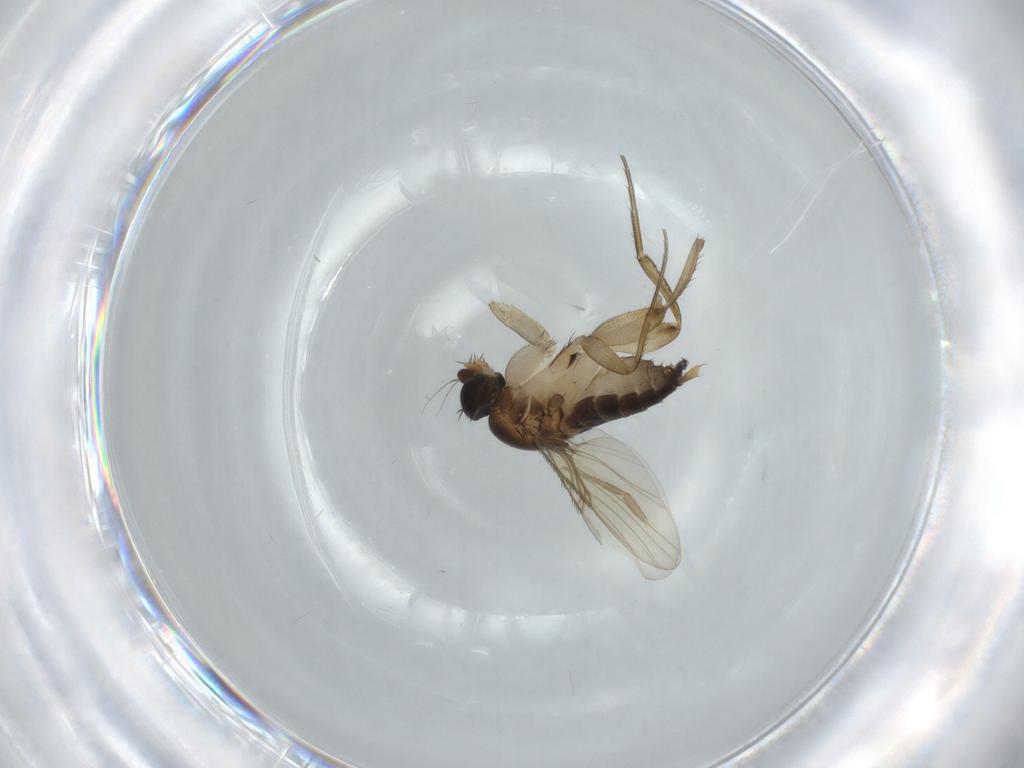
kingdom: Animalia
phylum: Arthropoda
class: Insecta
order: Diptera
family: Phoridae
